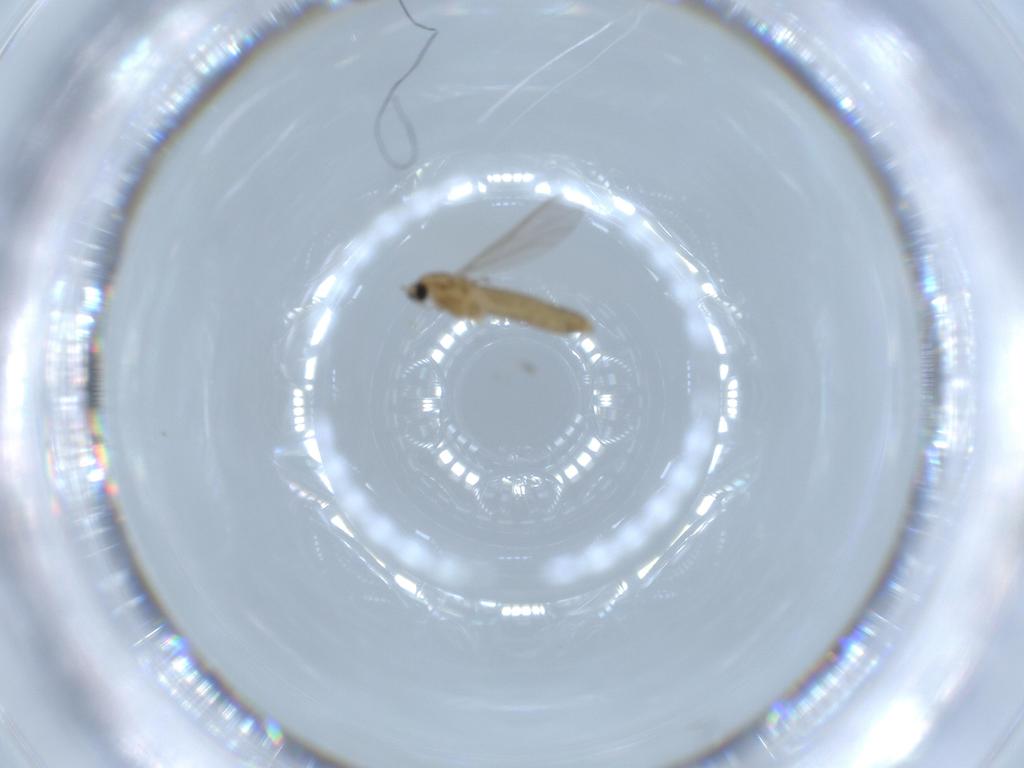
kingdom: Animalia
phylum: Arthropoda
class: Insecta
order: Diptera
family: Chironomidae
